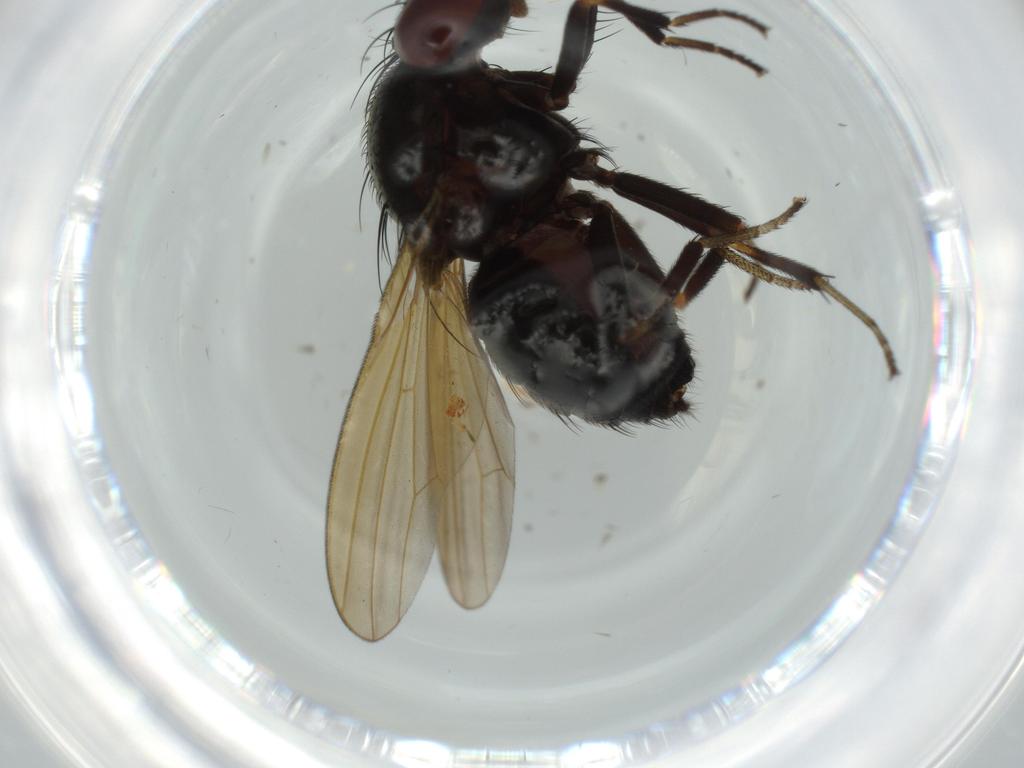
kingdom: Animalia
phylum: Arthropoda
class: Insecta
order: Diptera
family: Lauxaniidae
